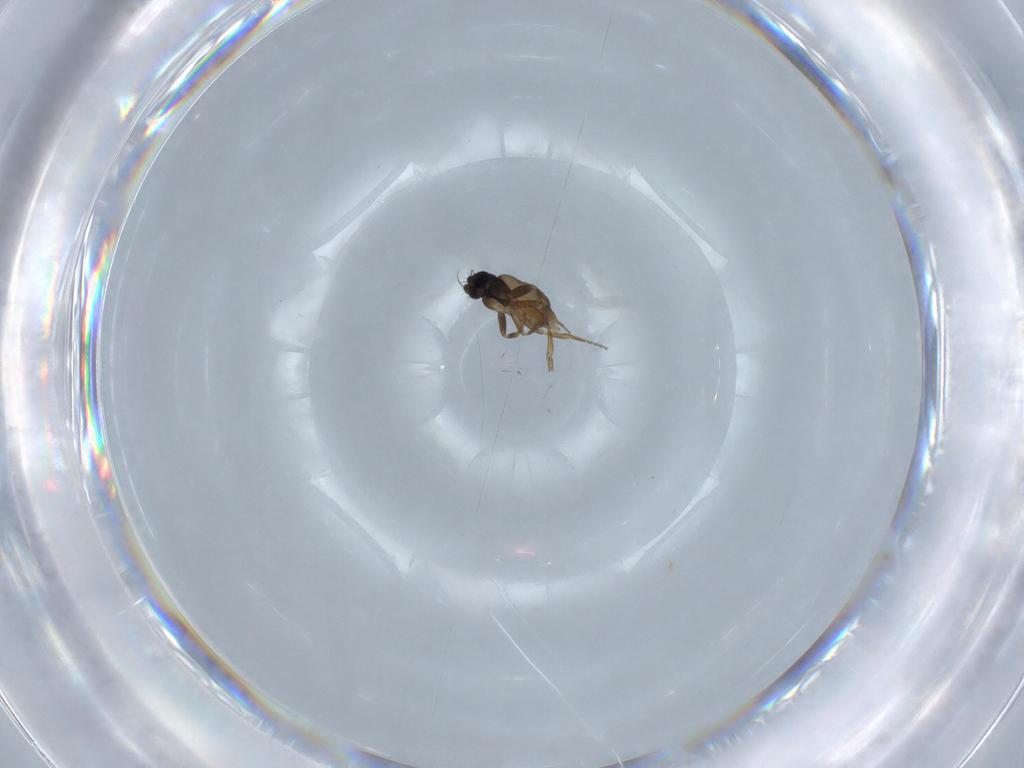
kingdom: Animalia
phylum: Arthropoda
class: Insecta
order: Diptera
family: Phoridae
